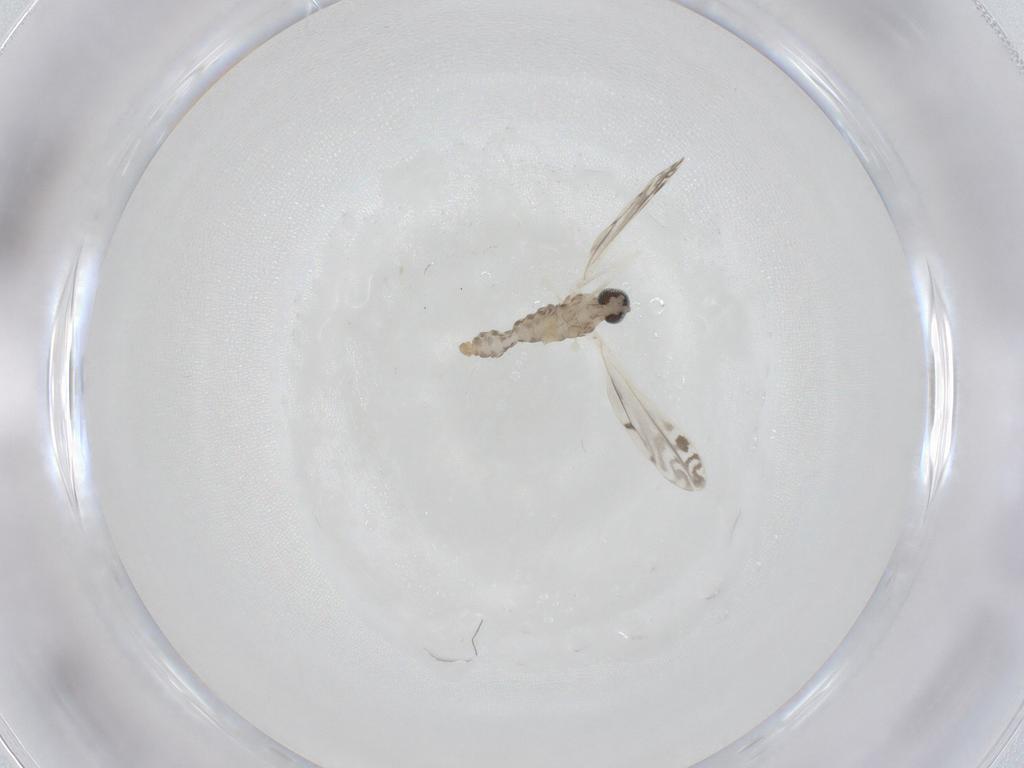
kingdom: Animalia
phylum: Arthropoda
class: Insecta
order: Diptera
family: Cecidomyiidae
